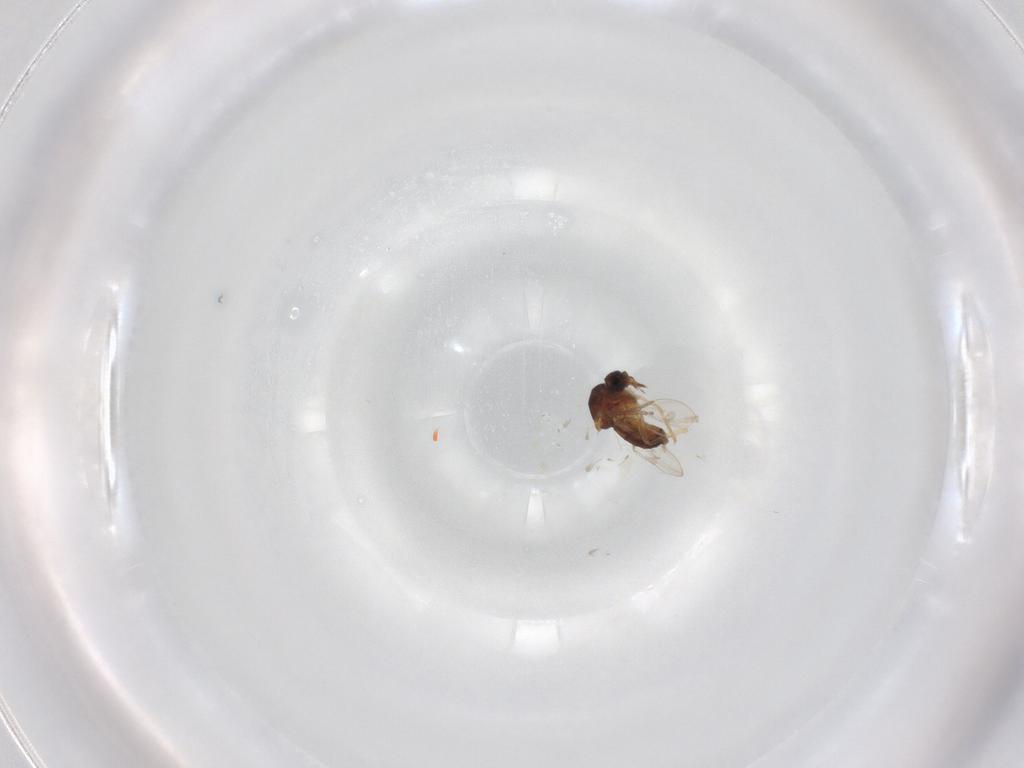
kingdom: Animalia
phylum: Arthropoda
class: Insecta
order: Diptera
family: Ceratopogonidae
